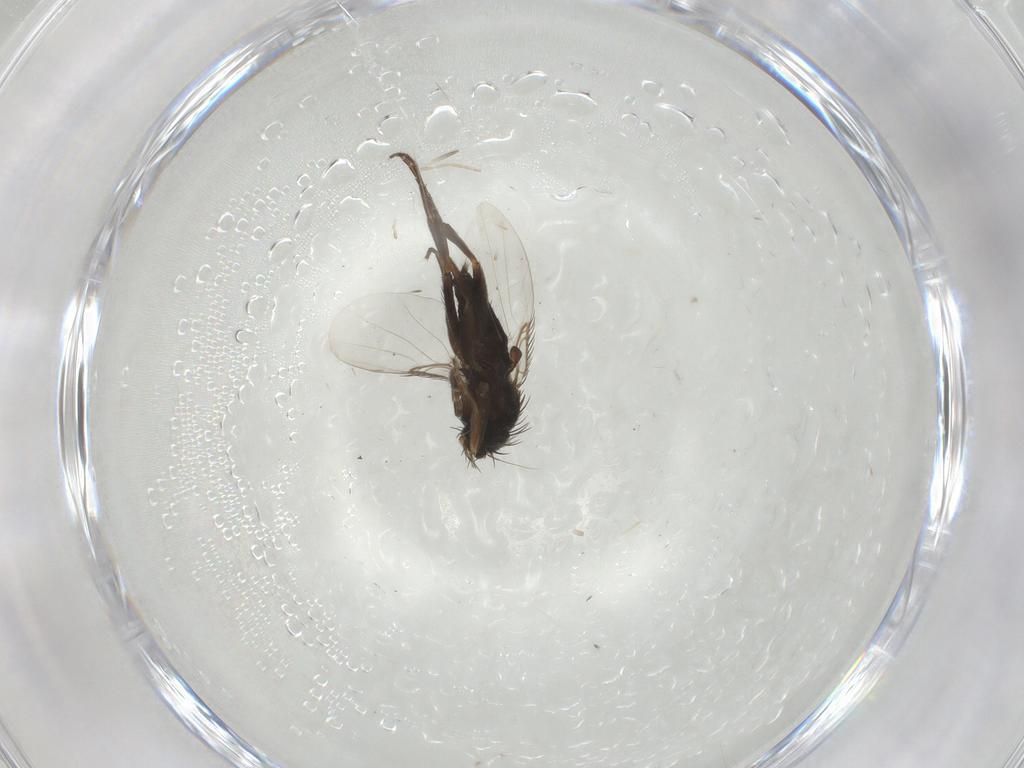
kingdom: Animalia
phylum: Arthropoda
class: Insecta
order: Diptera
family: Phoridae
